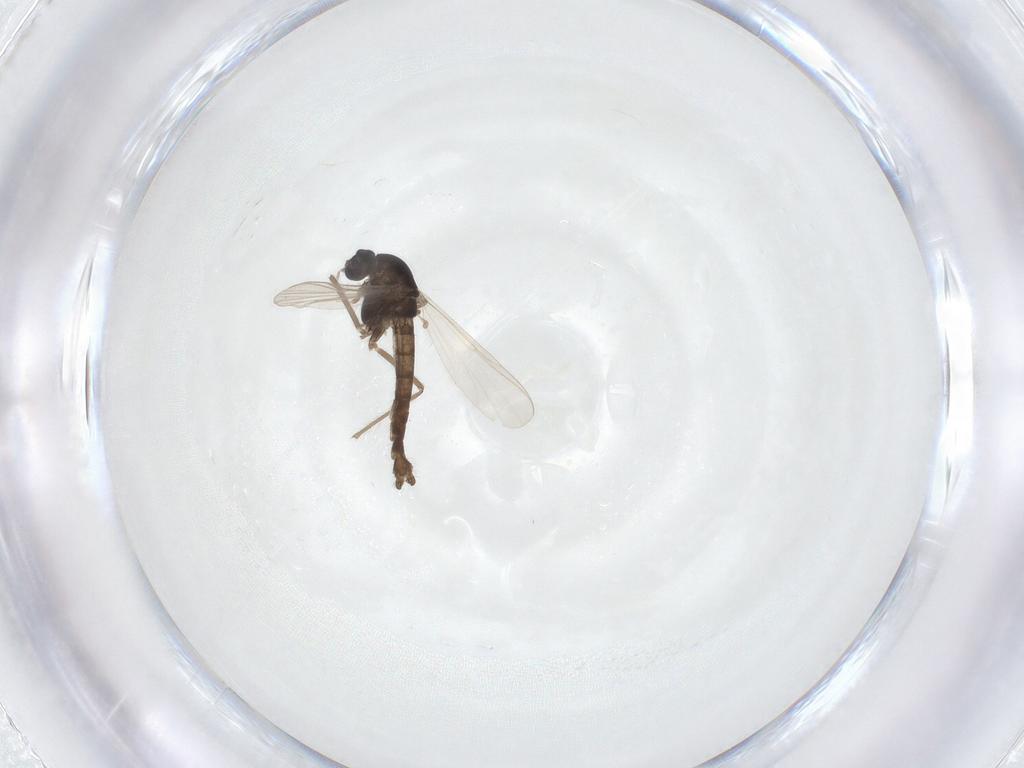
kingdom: Animalia
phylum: Arthropoda
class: Insecta
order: Diptera
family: Chironomidae
